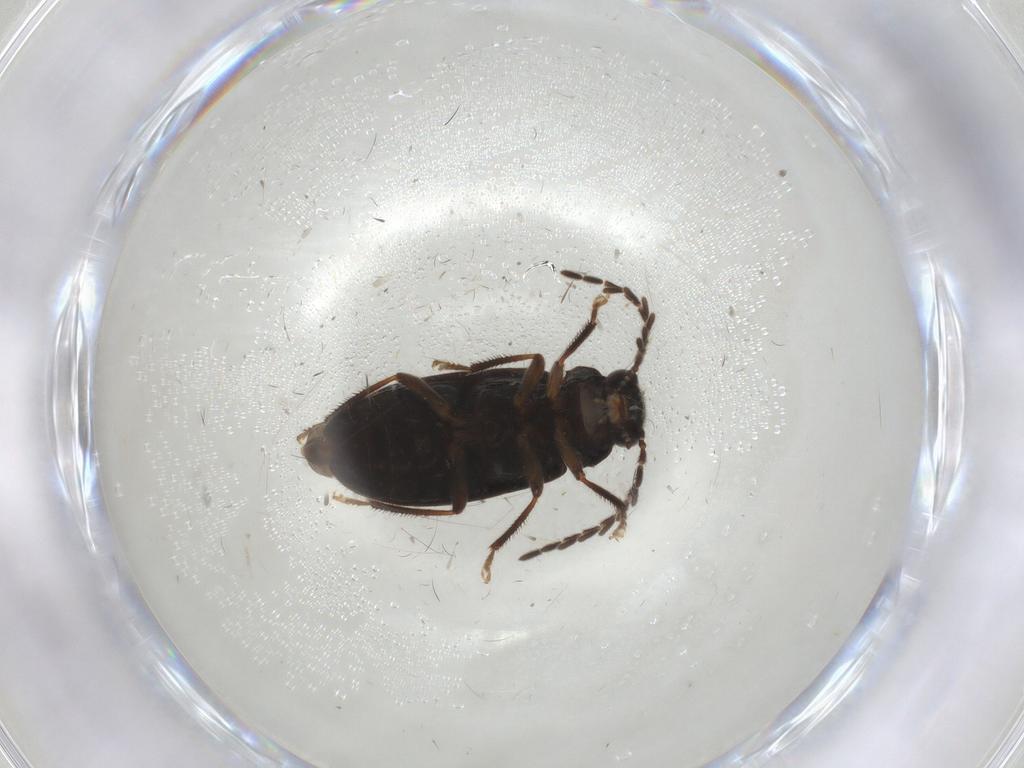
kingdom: Animalia
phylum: Arthropoda
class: Insecta
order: Coleoptera
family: Ptilodactylidae
